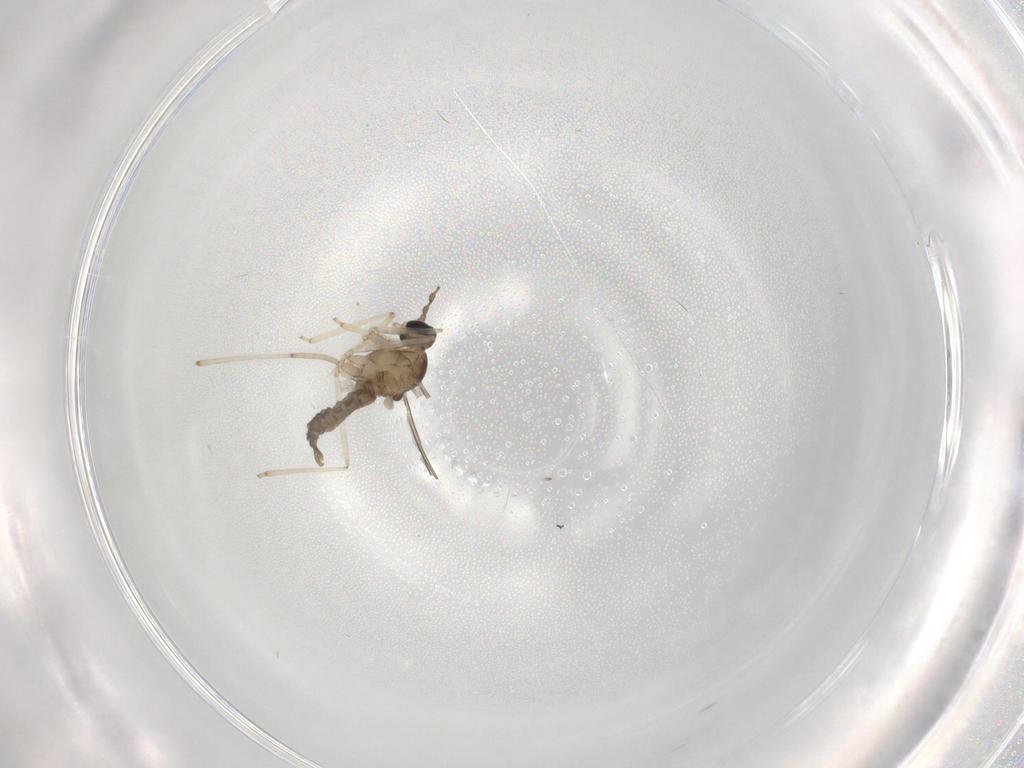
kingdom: Animalia
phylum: Arthropoda
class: Insecta
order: Diptera
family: Cecidomyiidae
